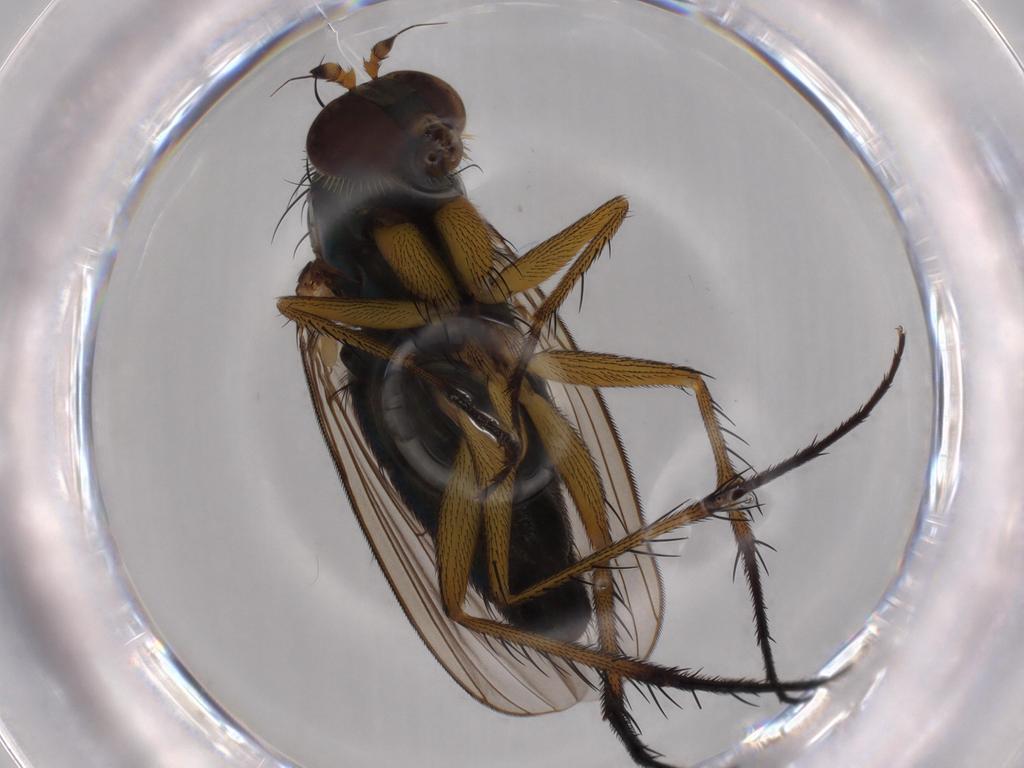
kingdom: Animalia
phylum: Arthropoda
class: Insecta
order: Diptera
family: Dolichopodidae
